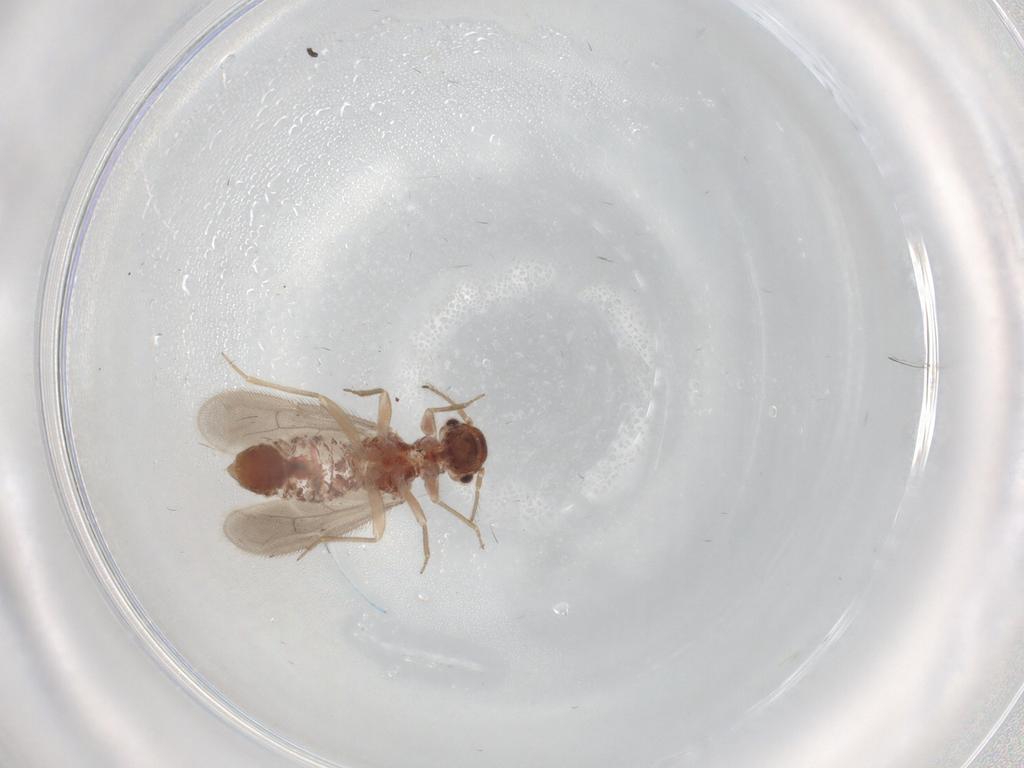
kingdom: Animalia
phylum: Arthropoda
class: Insecta
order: Psocodea
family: Archipsocidae
